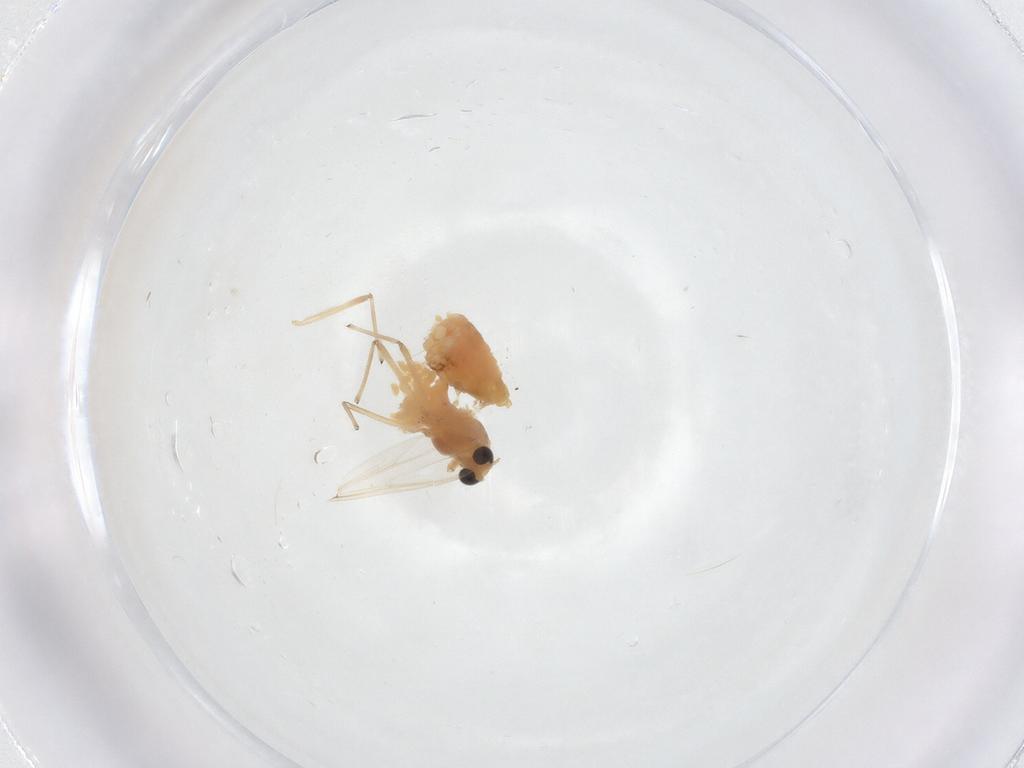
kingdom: Animalia
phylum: Arthropoda
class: Insecta
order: Diptera
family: Chironomidae
